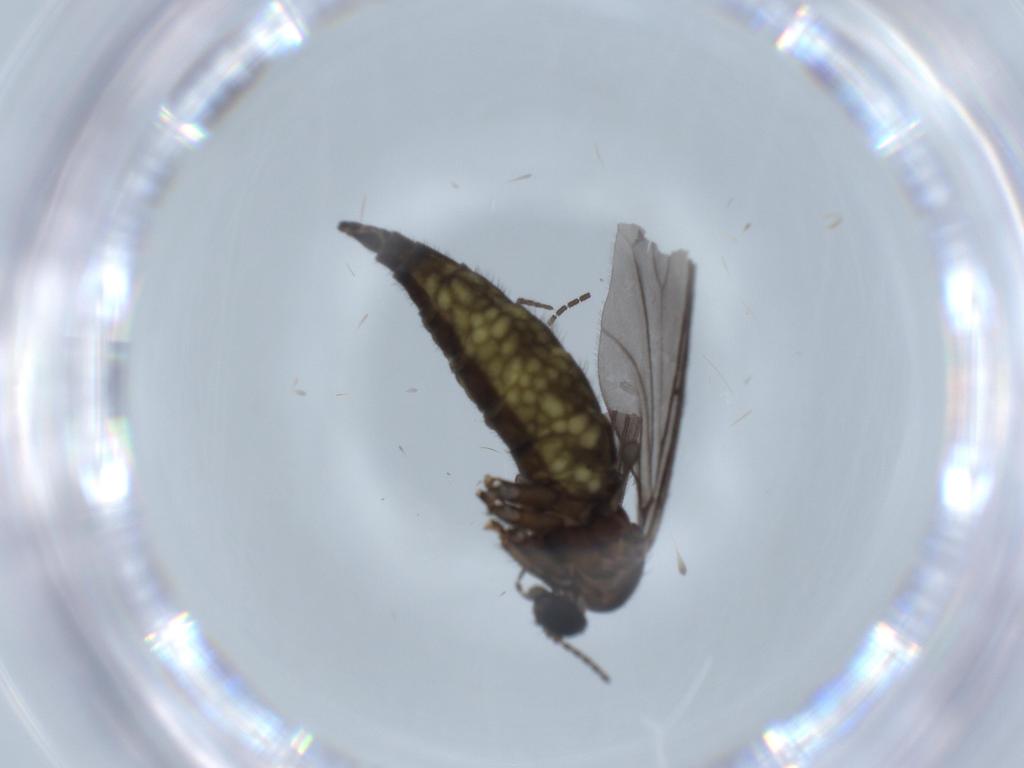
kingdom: Animalia
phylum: Arthropoda
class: Insecta
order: Diptera
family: Sciaridae
